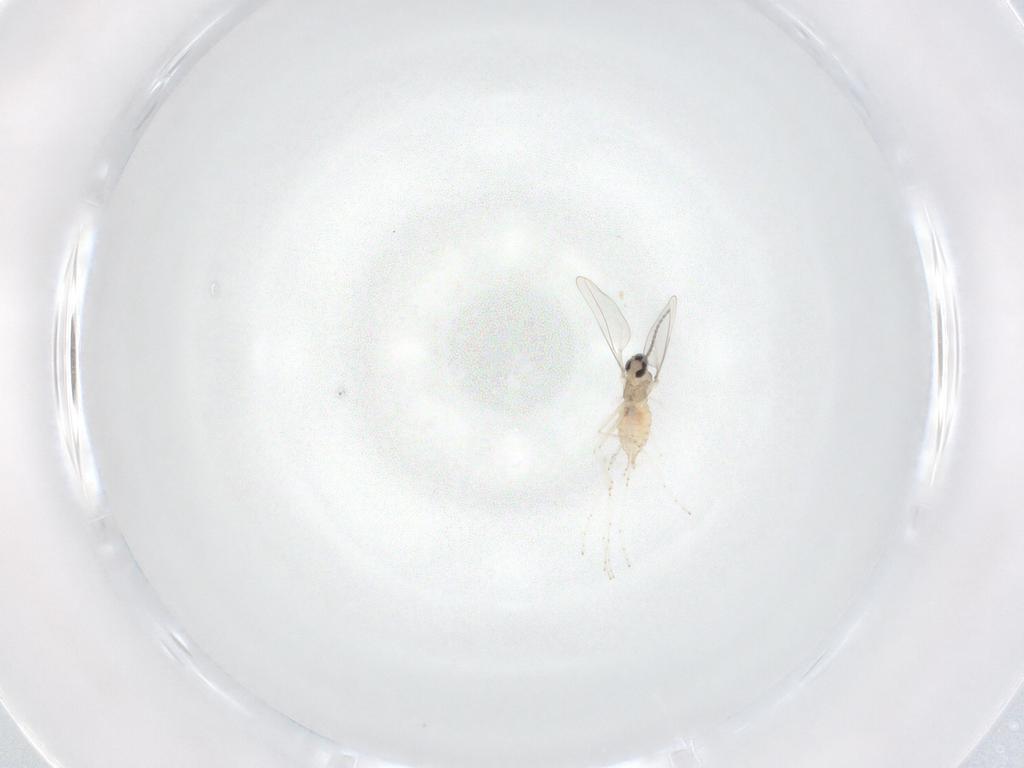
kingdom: Animalia
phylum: Arthropoda
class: Insecta
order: Diptera
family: Cecidomyiidae
